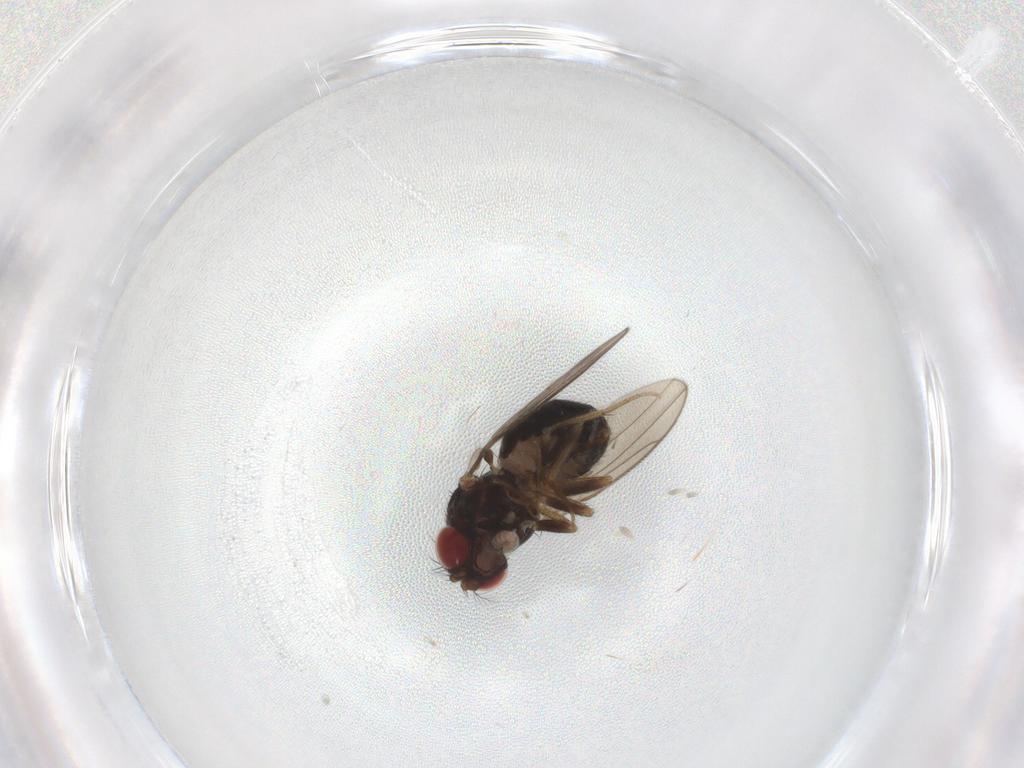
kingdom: Animalia
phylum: Arthropoda
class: Insecta
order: Diptera
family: Drosophilidae
